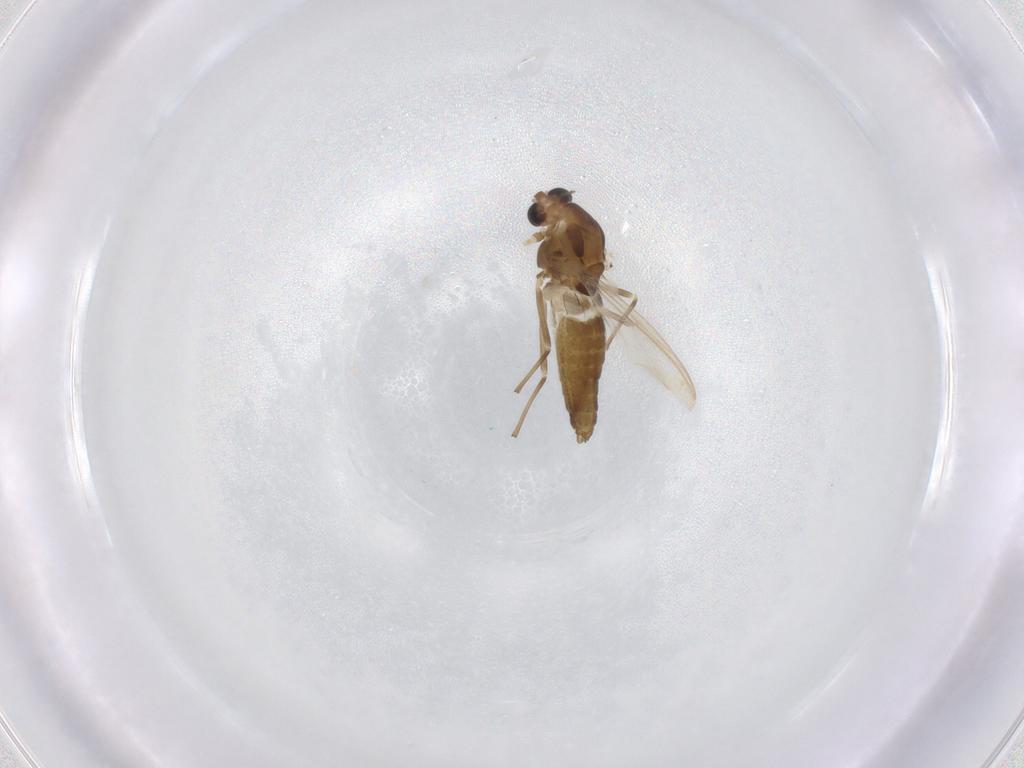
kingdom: Animalia
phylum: Arthropoda
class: Insecta
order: Diptera
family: Chironomidae
